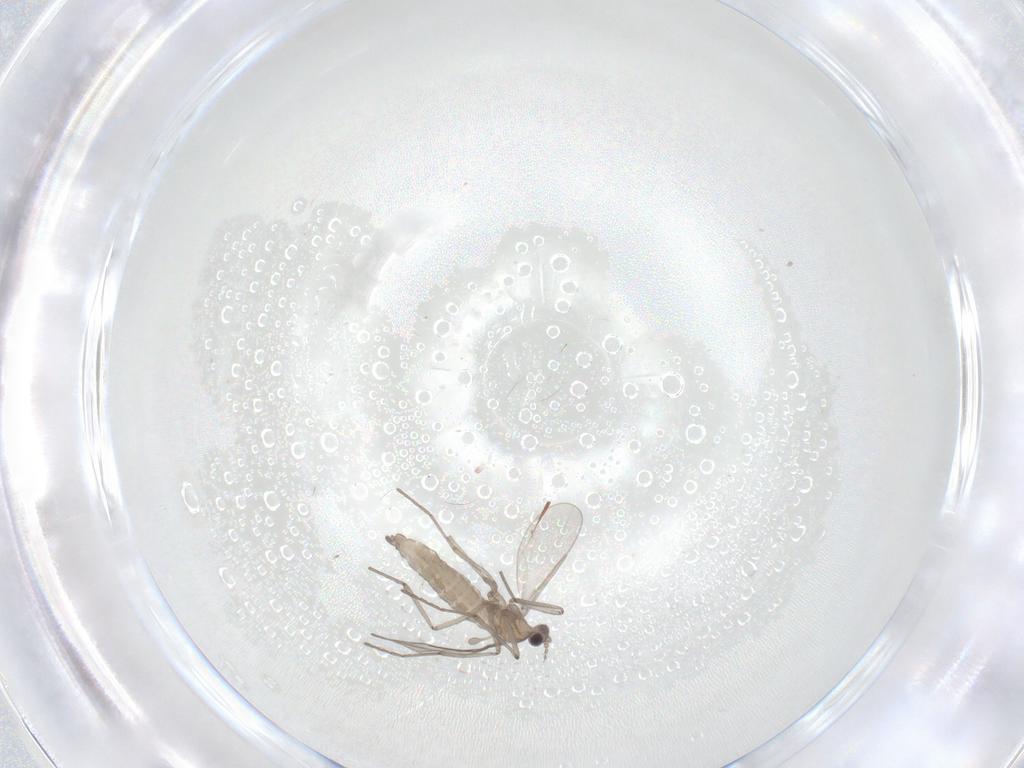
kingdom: Animalia
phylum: Arthropoda
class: Insecta
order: Diptera
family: Cecidomyiidae
